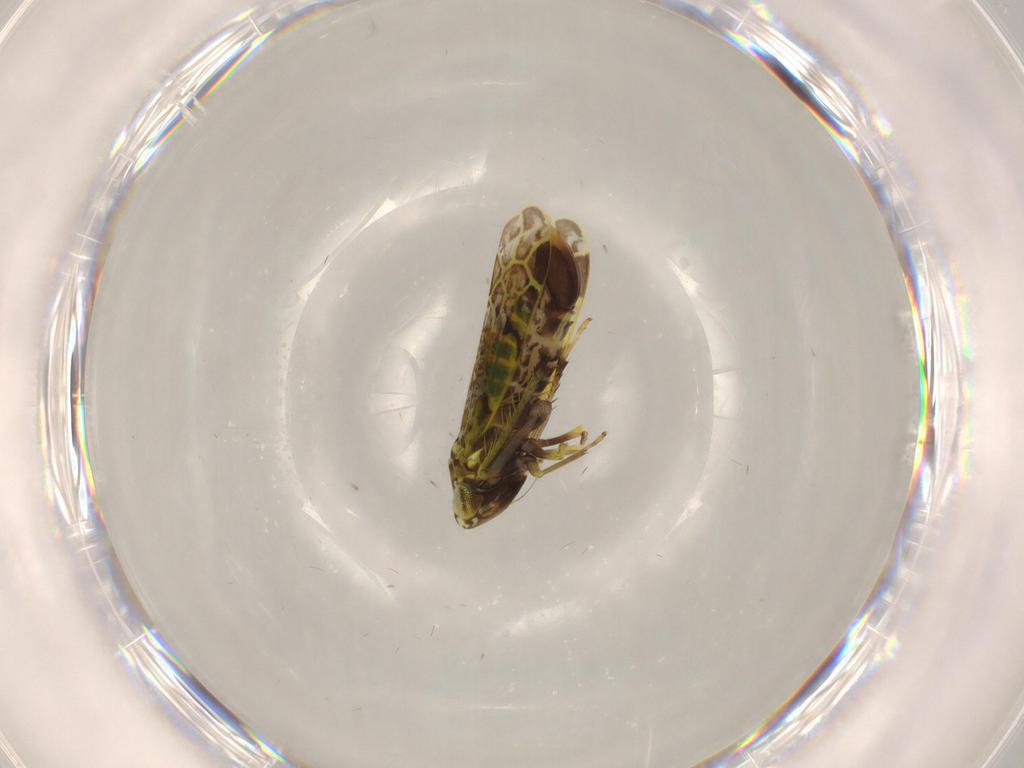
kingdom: Animalia
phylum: Arthropoda
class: Insecta
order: Hemiptera
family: Cicadellidae
